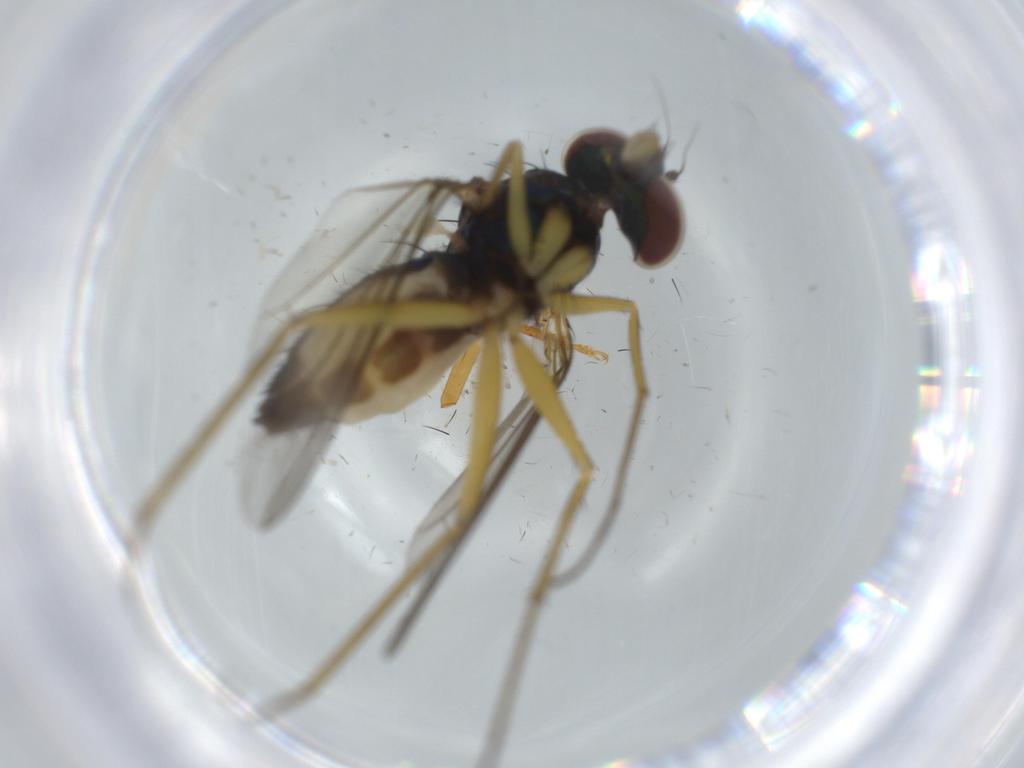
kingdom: Animalia
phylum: Arthropoda
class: Insecta
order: Diptera
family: Dolichopodidae
